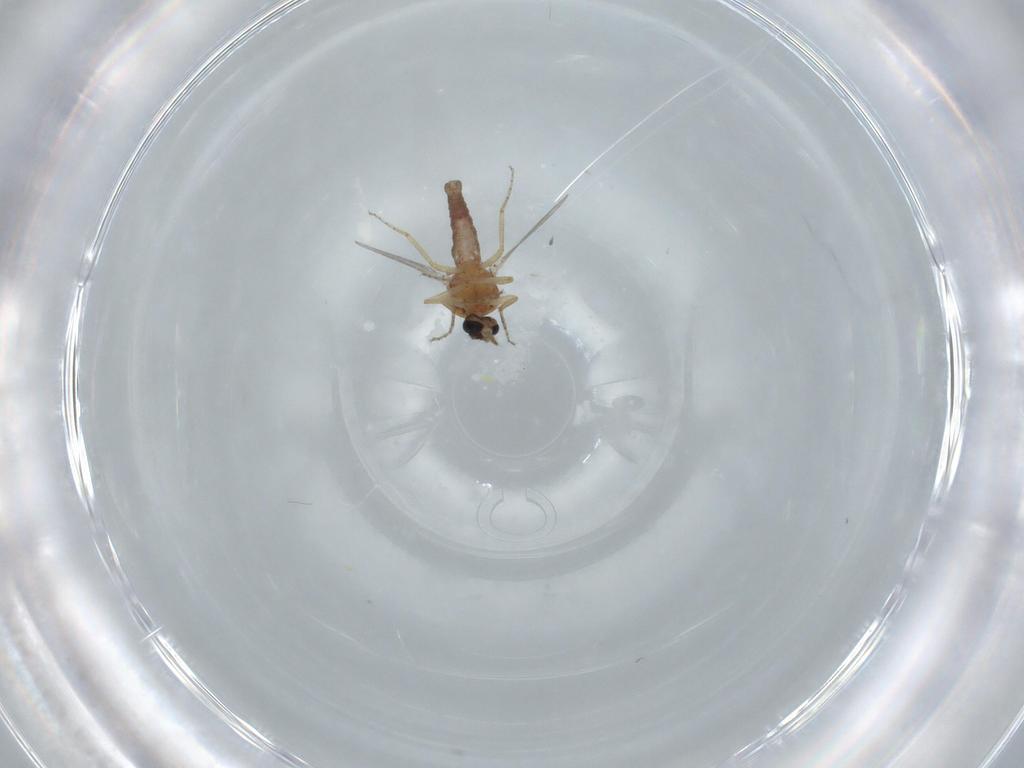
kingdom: Animalia
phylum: Arthropoda
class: Insecta
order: Diptera
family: Ceratopogonidae
